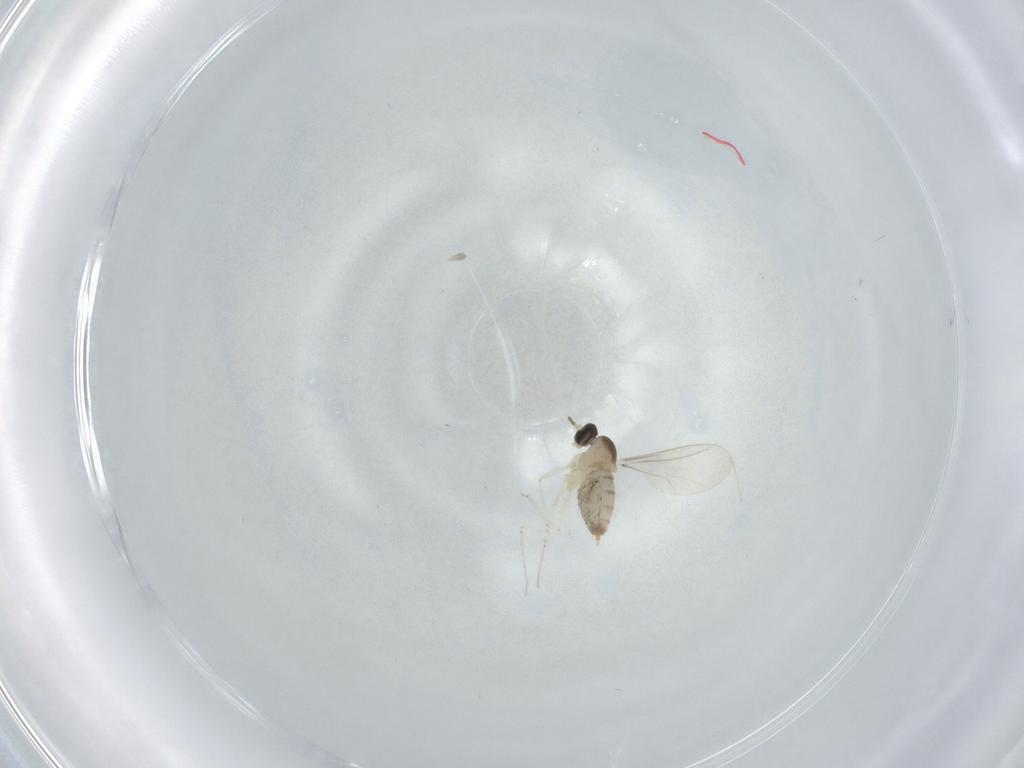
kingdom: Animalia
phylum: Arthropoda
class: Insecta
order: Diptera
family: Cecidomyiidae
